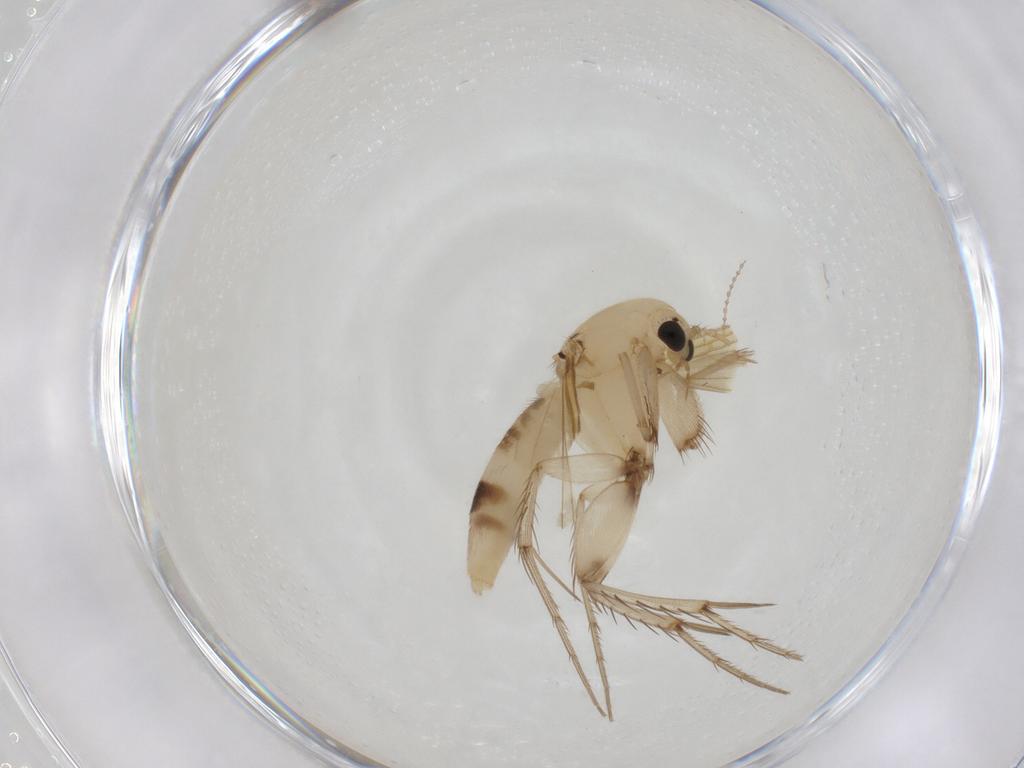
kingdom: Animalia
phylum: Arthropoda
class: Insecta
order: Diptera
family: Mycetophilidae
